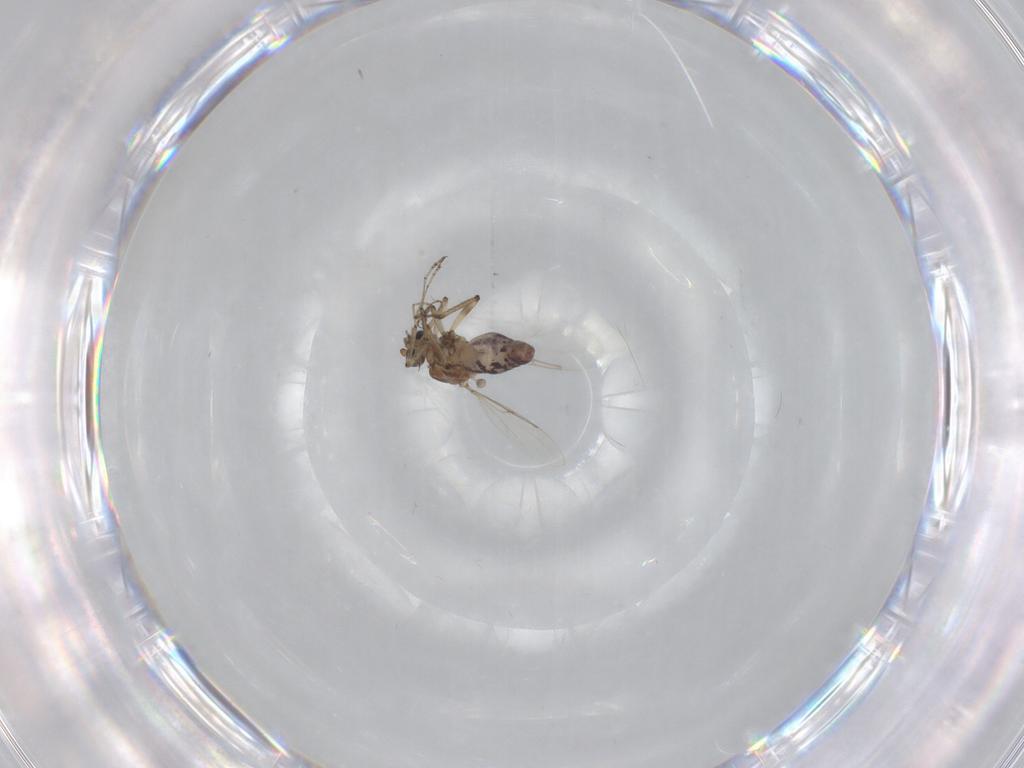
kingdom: Animalia
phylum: Arthropoda
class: Insecta
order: Diptera
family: Ceratopogonidae
